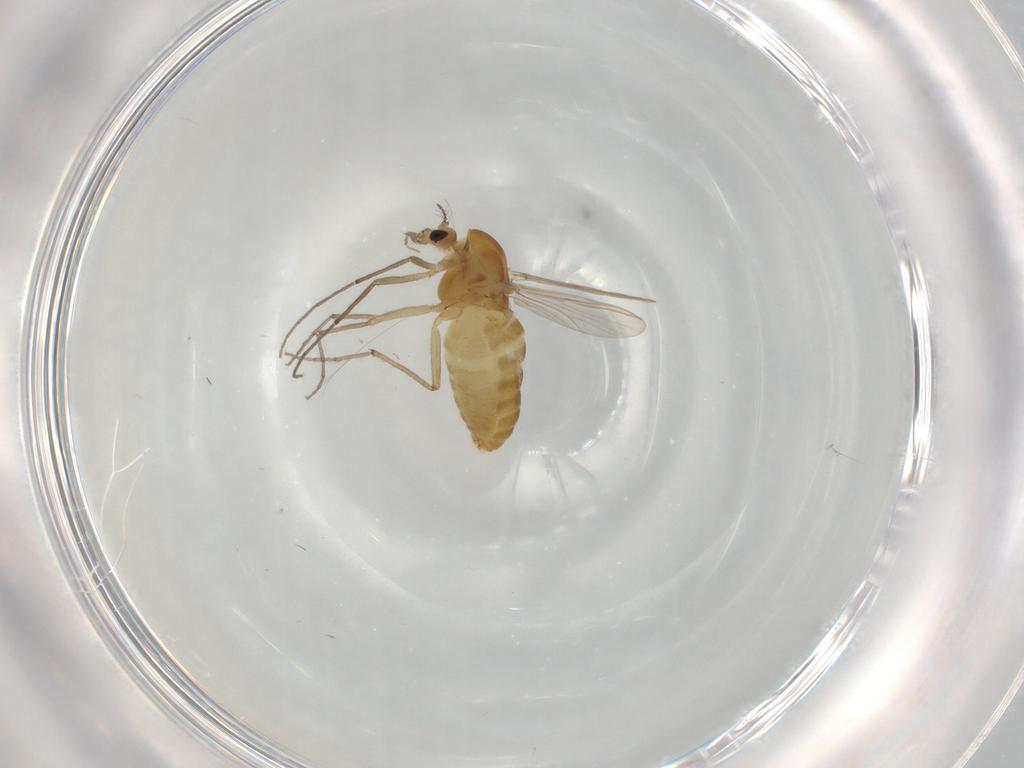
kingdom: Animalia
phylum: Arthropoda
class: Insecta
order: Diptera
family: Chironomidae
